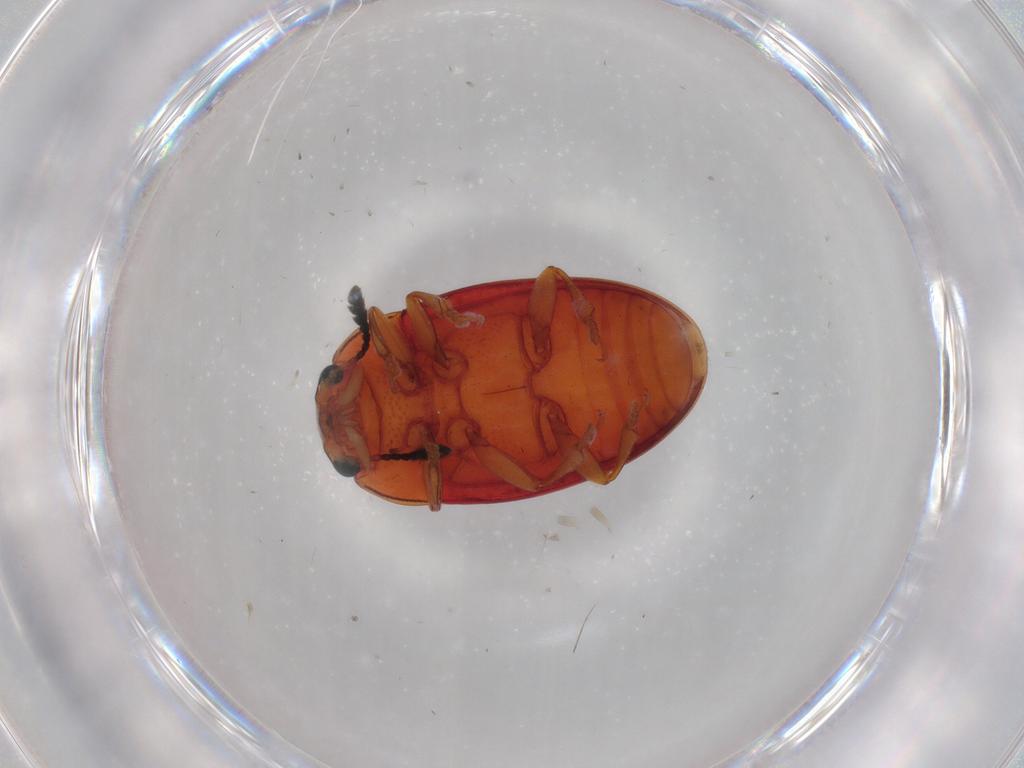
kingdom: Animalia
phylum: Arthropoda
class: Insecta
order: Coleoptera
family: Erotylidae
